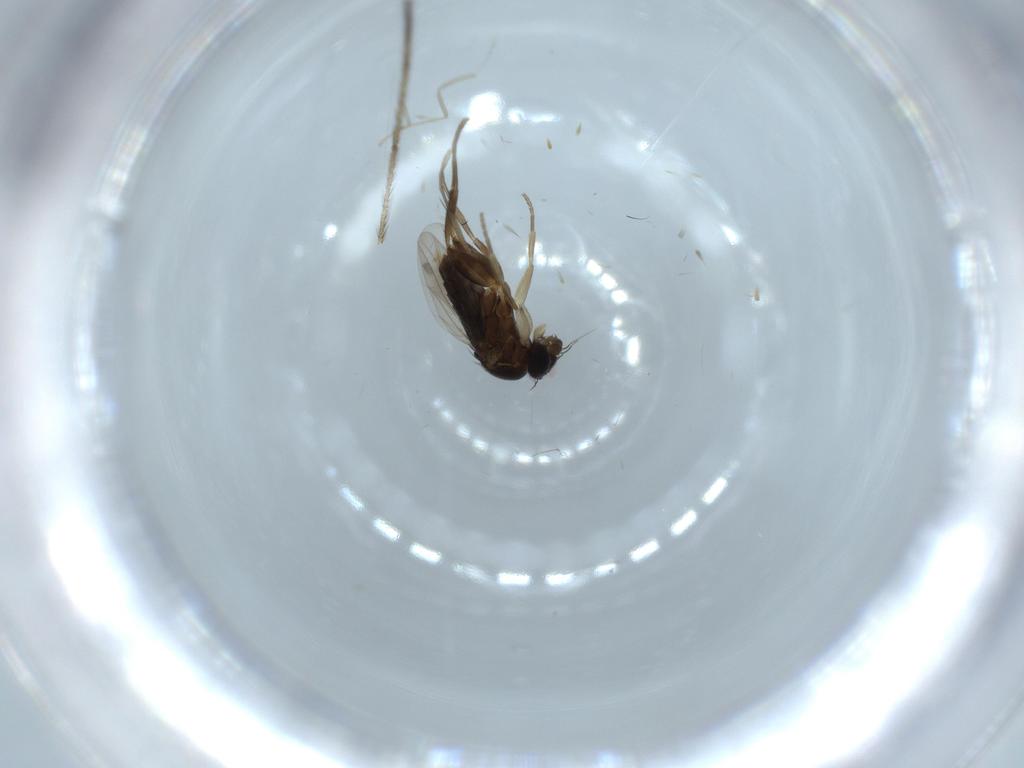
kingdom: Animalia
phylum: Arthropoda
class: Insecta
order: Diptera
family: Phoridae
